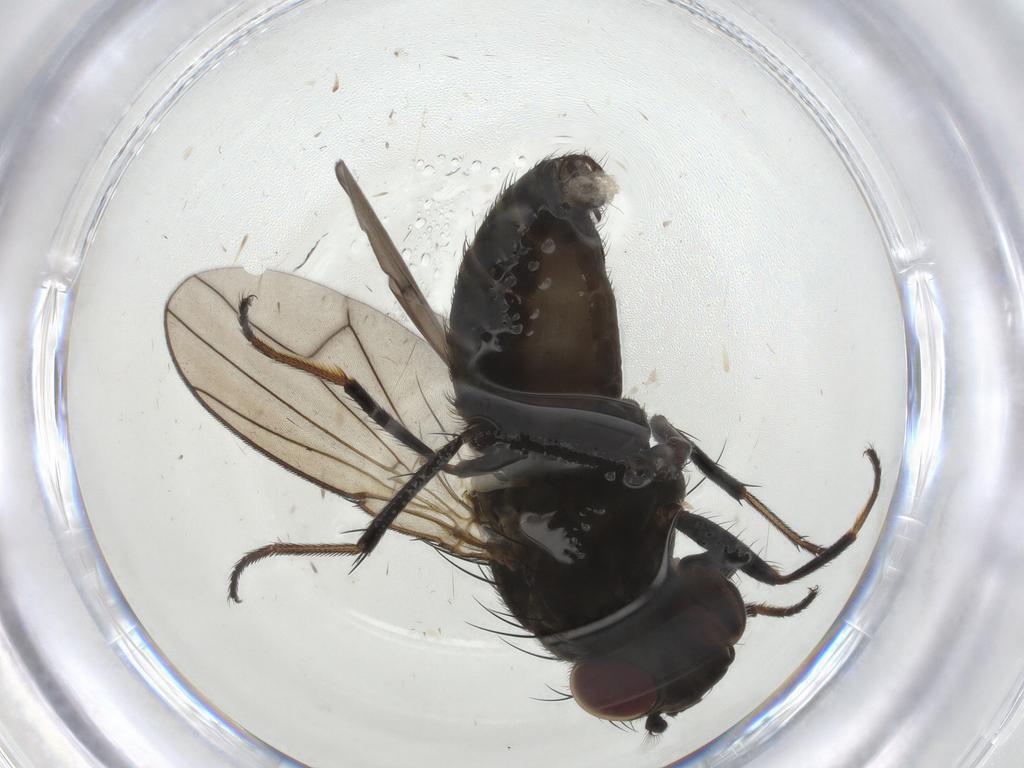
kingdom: Animalia
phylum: Arthropoda
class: Insecta
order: Diptera
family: Ephydridae
